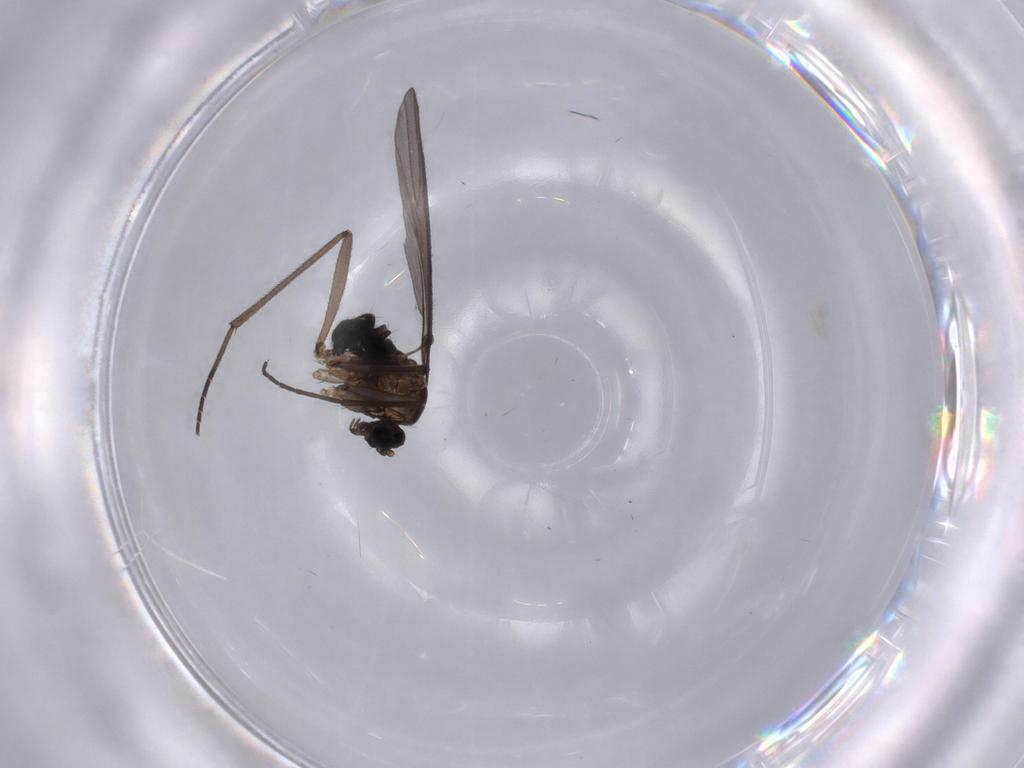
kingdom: Animalia
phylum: Arthropoda
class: Insecta
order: Diptera
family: Sciaridae
